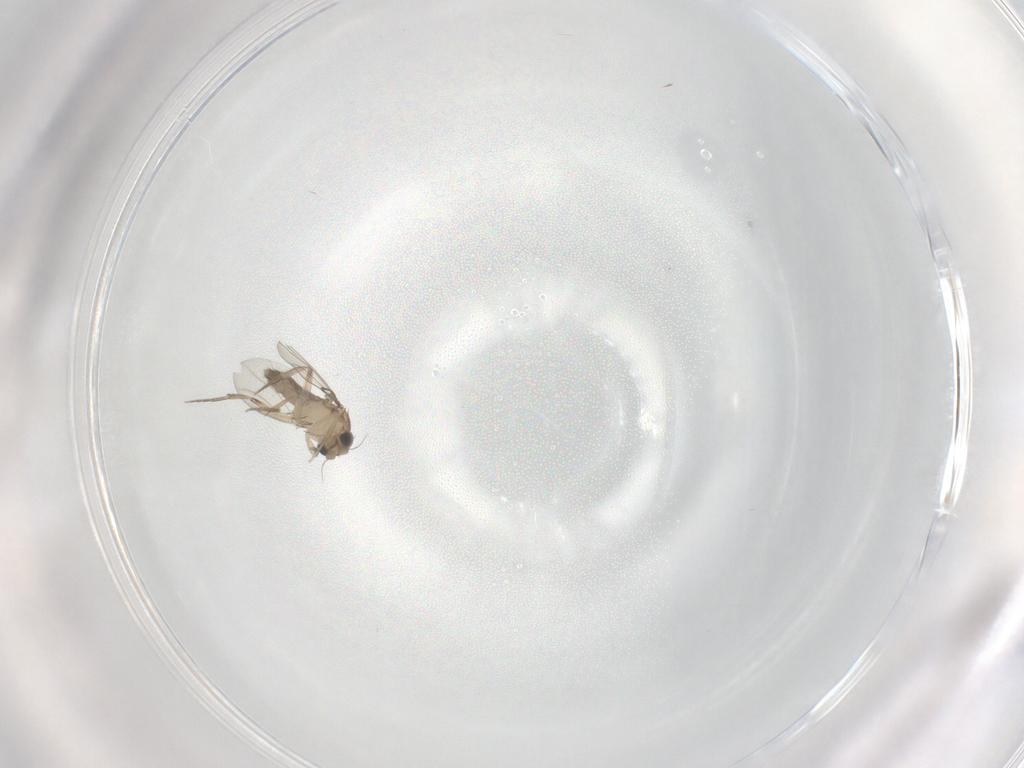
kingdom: Animalia
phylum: Arthropoda
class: Insecta
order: Diptera
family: Phoridae
